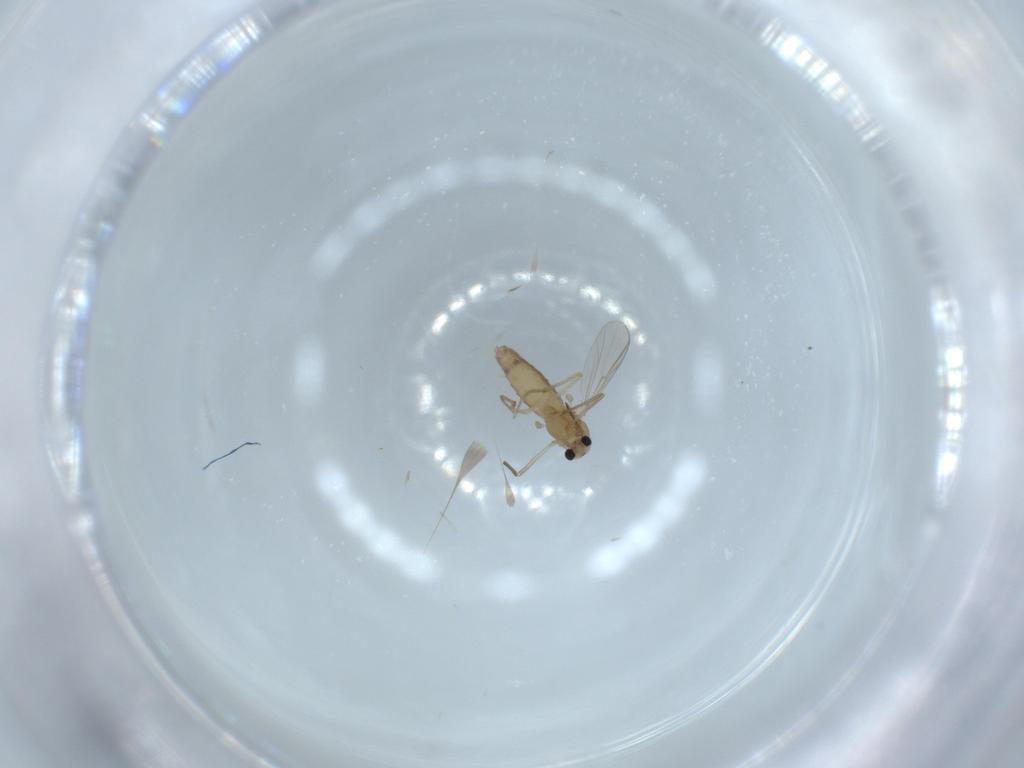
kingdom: Animalia
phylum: Arthropoda
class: Insecta
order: Diptera
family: Chironomidae
